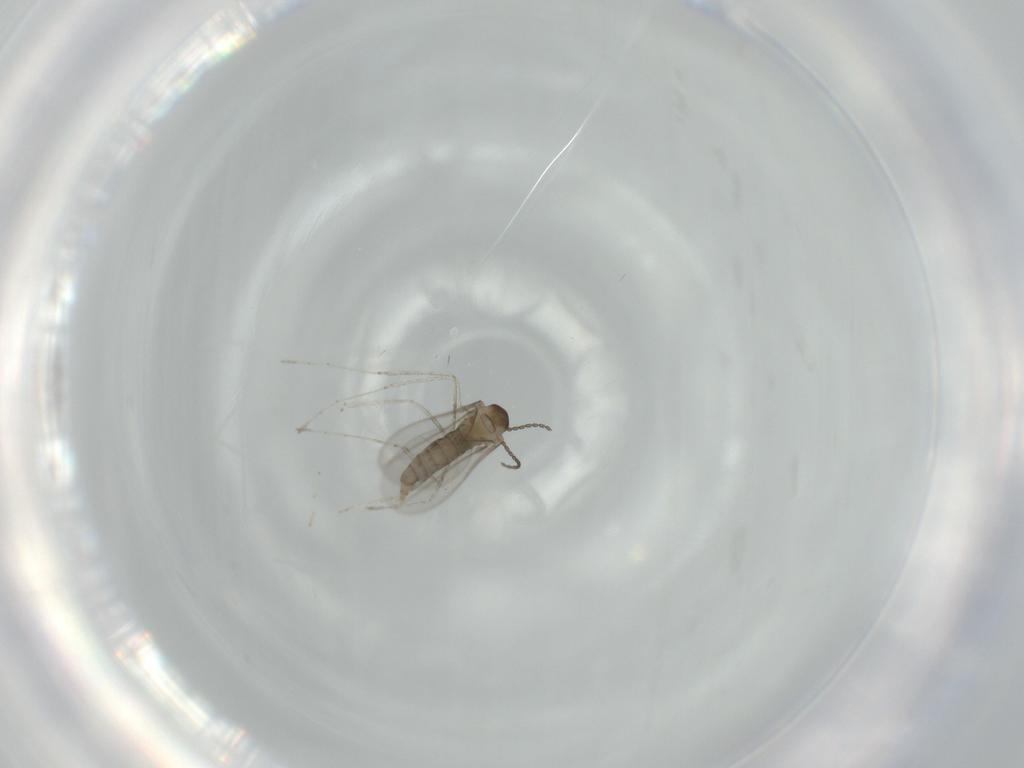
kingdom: Animalia
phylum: Arthropoda
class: Insecta
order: Diptera
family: Cecidomyiidae
